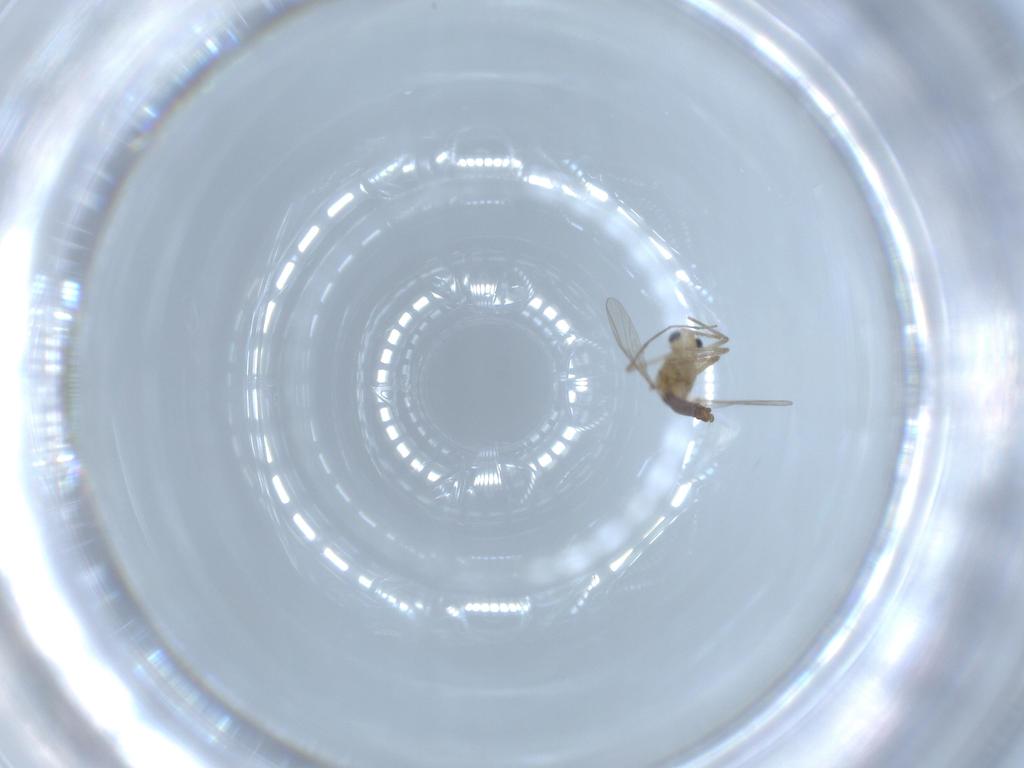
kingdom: Animalia
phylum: Arthropoda
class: Insecta
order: Diptera
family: Chironomidae
